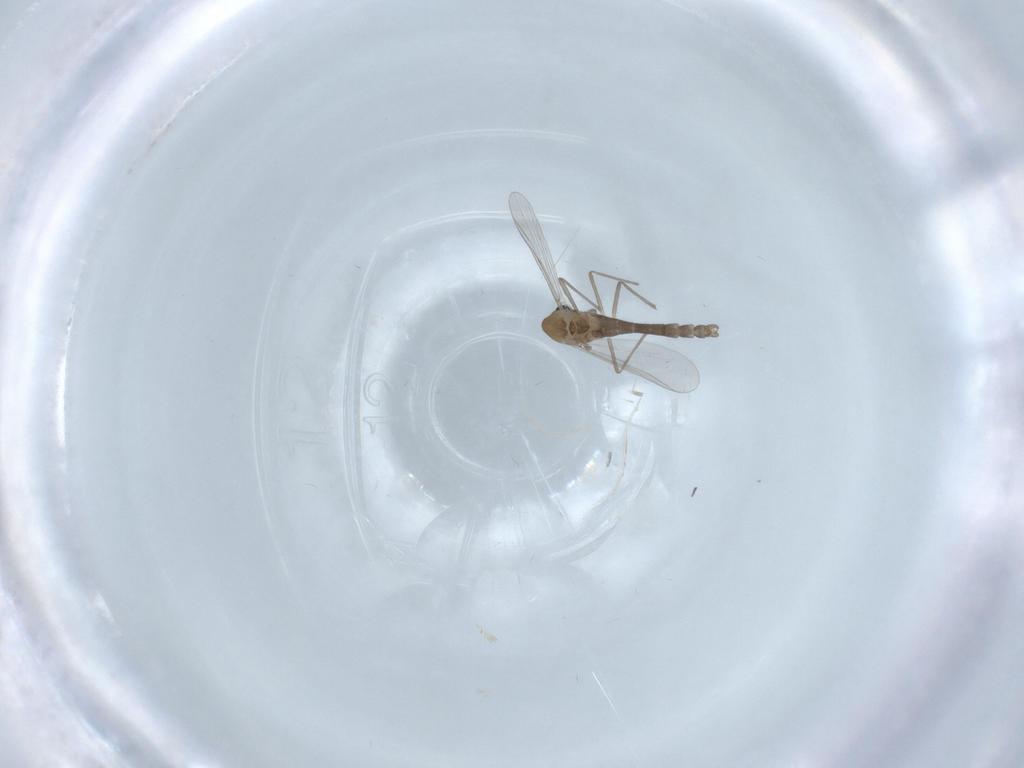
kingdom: Animalia
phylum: Arthropoda
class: Insecta
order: Diptera
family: Chironomidae
